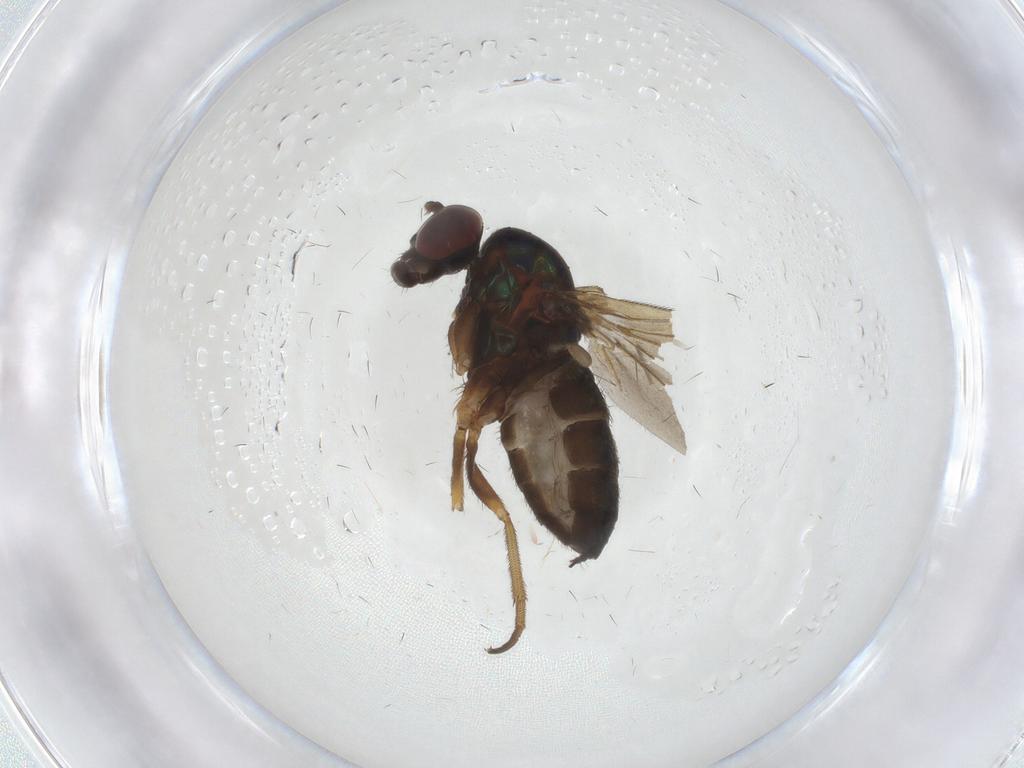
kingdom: Animalia
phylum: Arthropoda
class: Insecta
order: Diptera
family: Dolichopodidae
